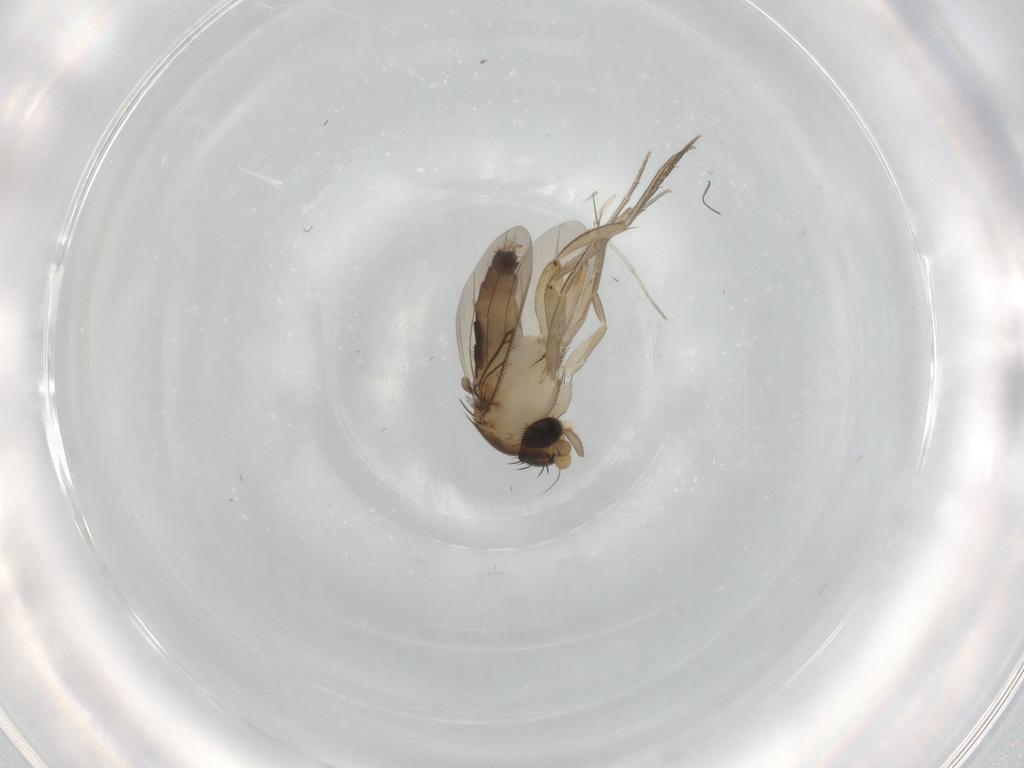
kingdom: Animalia
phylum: Arthropoda
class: Insecta
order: Diptera
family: Phoridae
